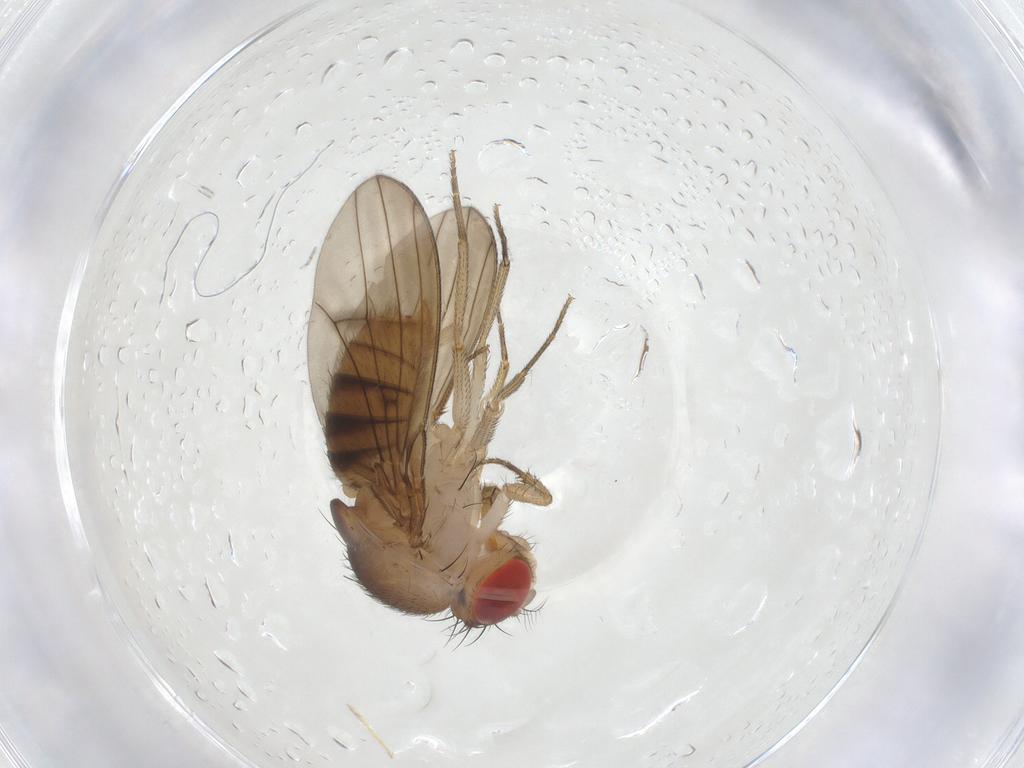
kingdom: Animalia
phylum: Arthropoda
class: Insecta
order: Diptera
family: Drosophilidae
